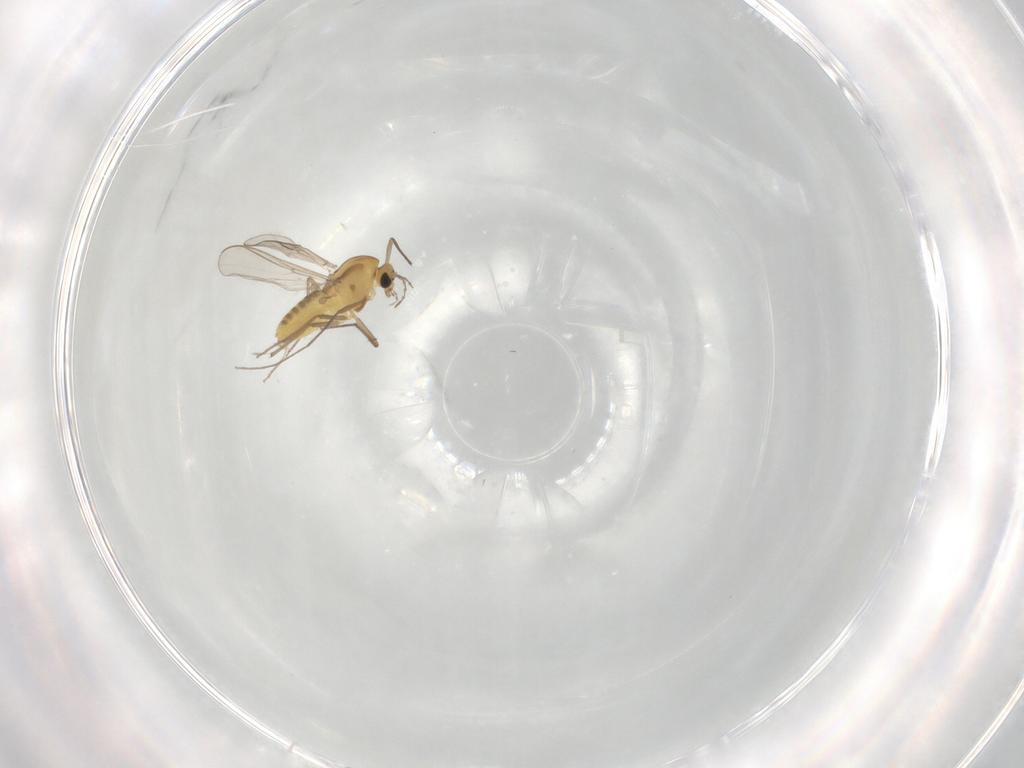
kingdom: Animalia
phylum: Arthropoda
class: Insecta
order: Diptera
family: Chironomidae
